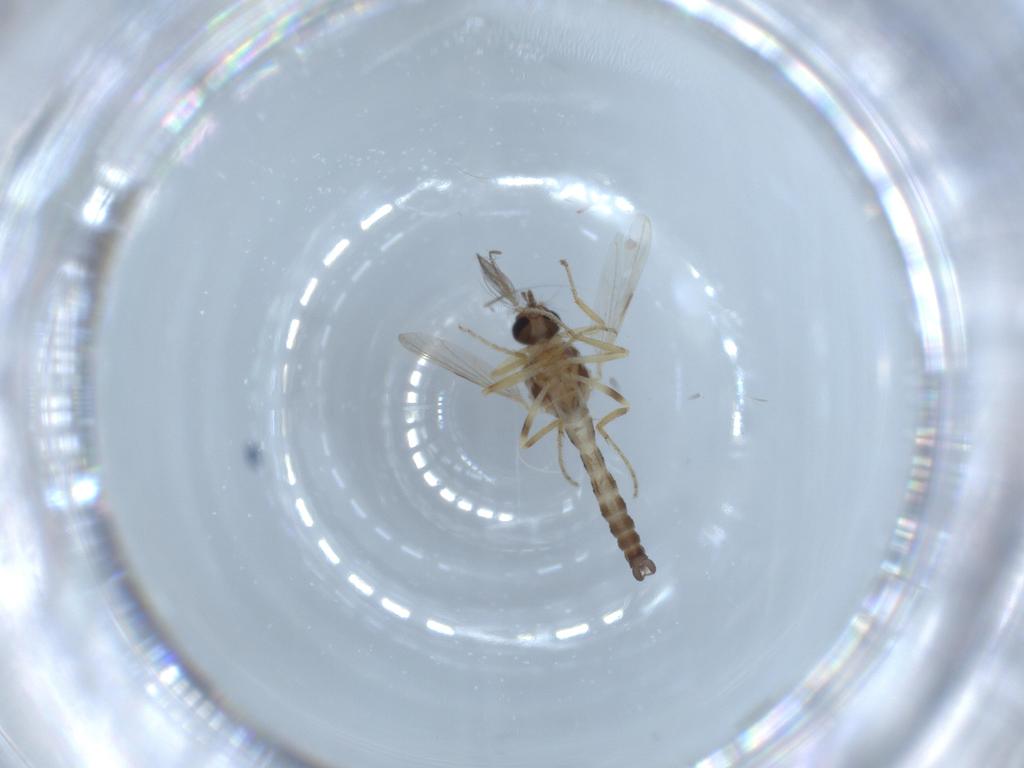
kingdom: Animalia
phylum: Arthropoda
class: Insecta
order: Diptera
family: Ceratopogonidae
